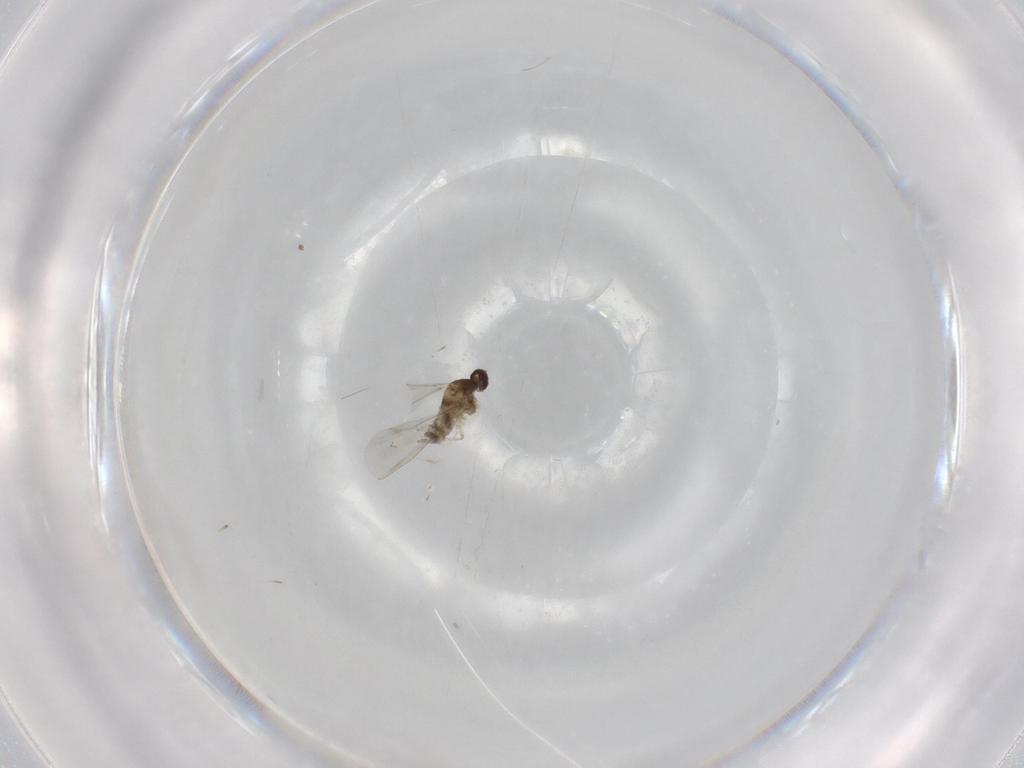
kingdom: Animalia
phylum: Arthropoda
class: Insecta
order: Diptera
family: Cecidomyiidae
